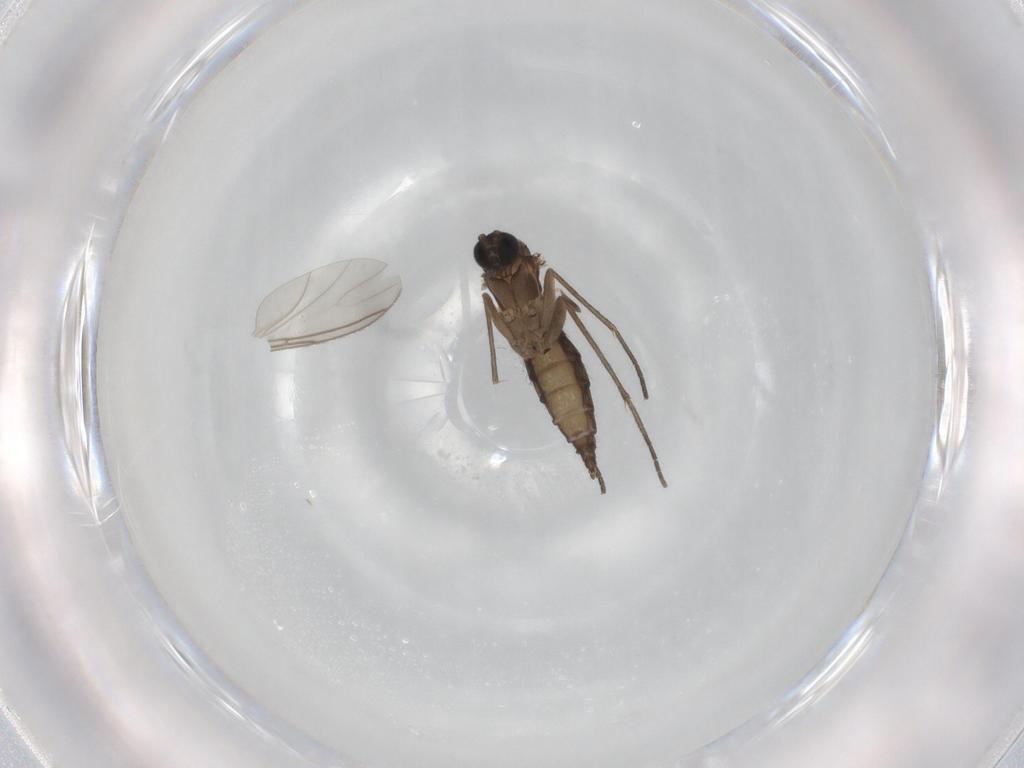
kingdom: Animalia
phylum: Arthropoda
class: Insecta
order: Diptera
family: Sciaridae
